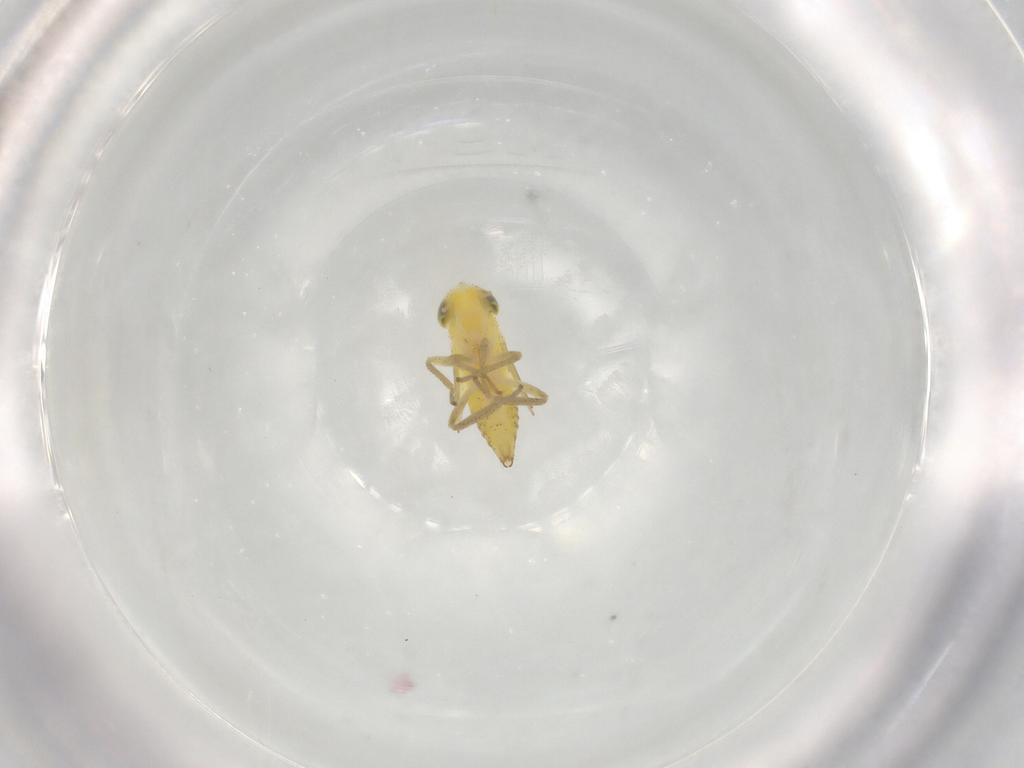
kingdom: Animalia
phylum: Arthropoda
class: Insecta
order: Hemiptera
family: Cicadellidae
